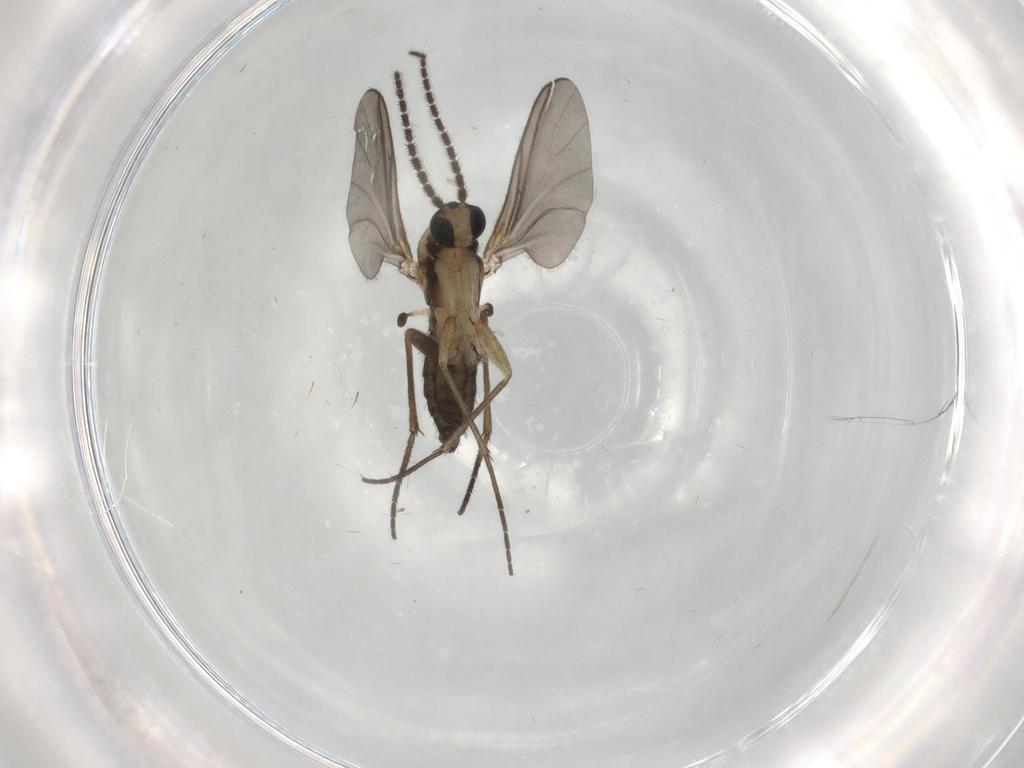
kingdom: Animalia
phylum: Arthropoda
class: Insecta
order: Diptera
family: Sciaridae
